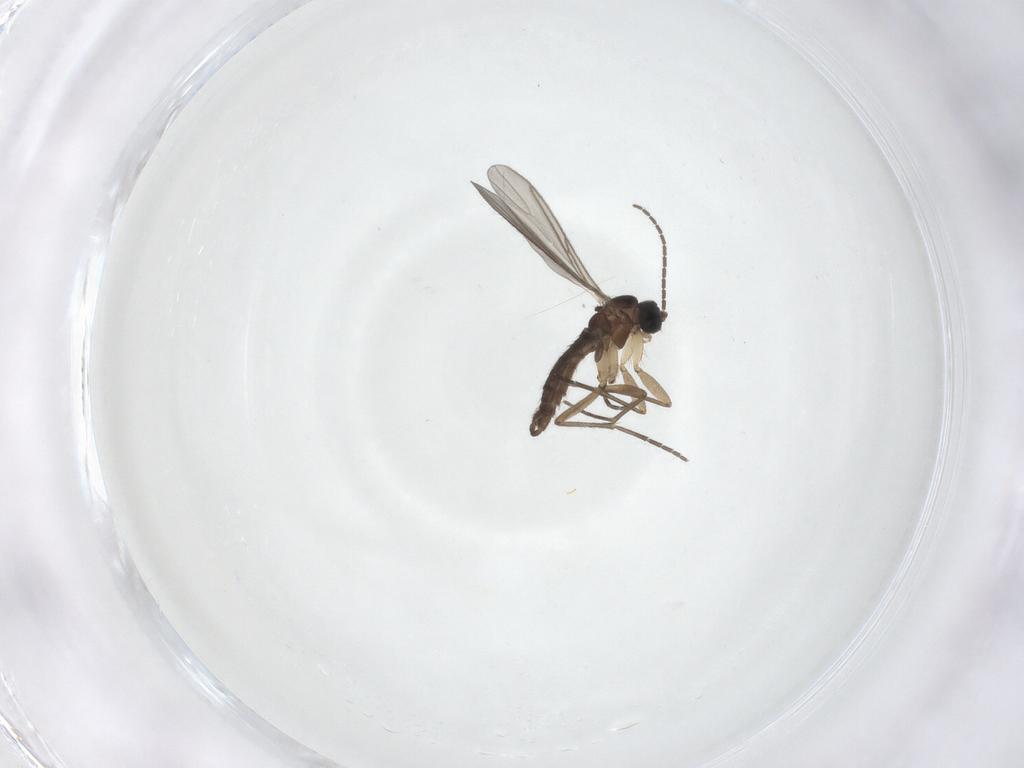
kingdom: Animalia
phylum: Arthropoda
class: Insecta
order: Diptera
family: Sciaridae
